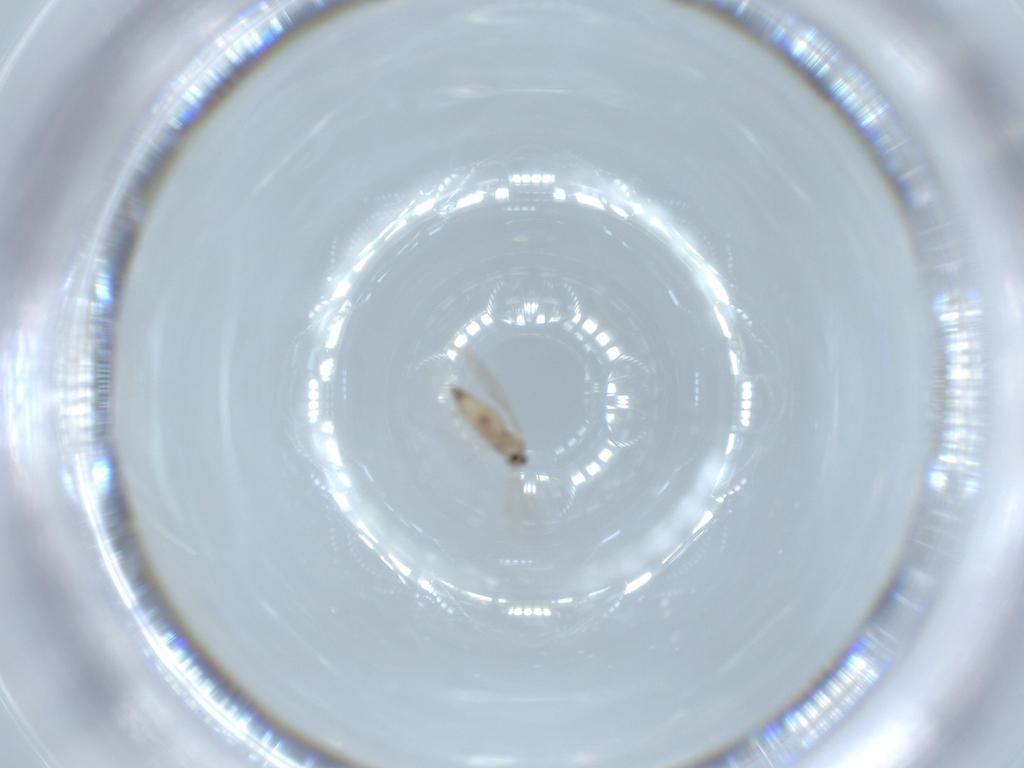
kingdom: Animalia
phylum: Arthropoda
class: Insecta
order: Diptera
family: Cecidomyiidae
